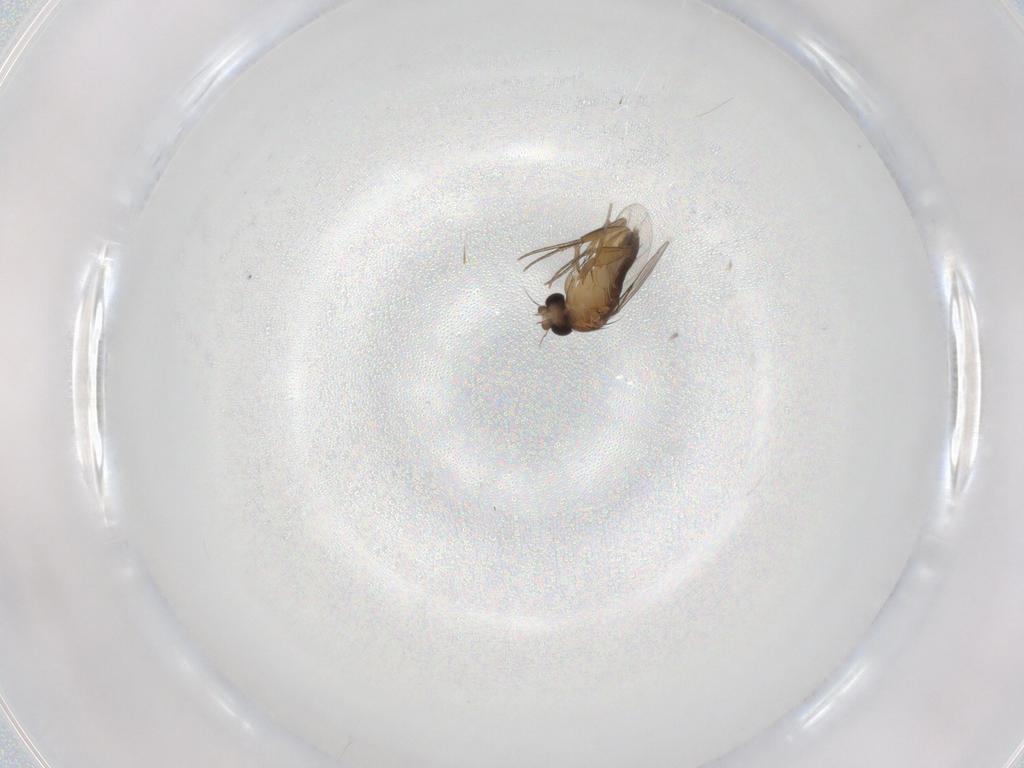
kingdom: Animalia
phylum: Arthropoda
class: Insecta
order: Diptera
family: Phoridae
